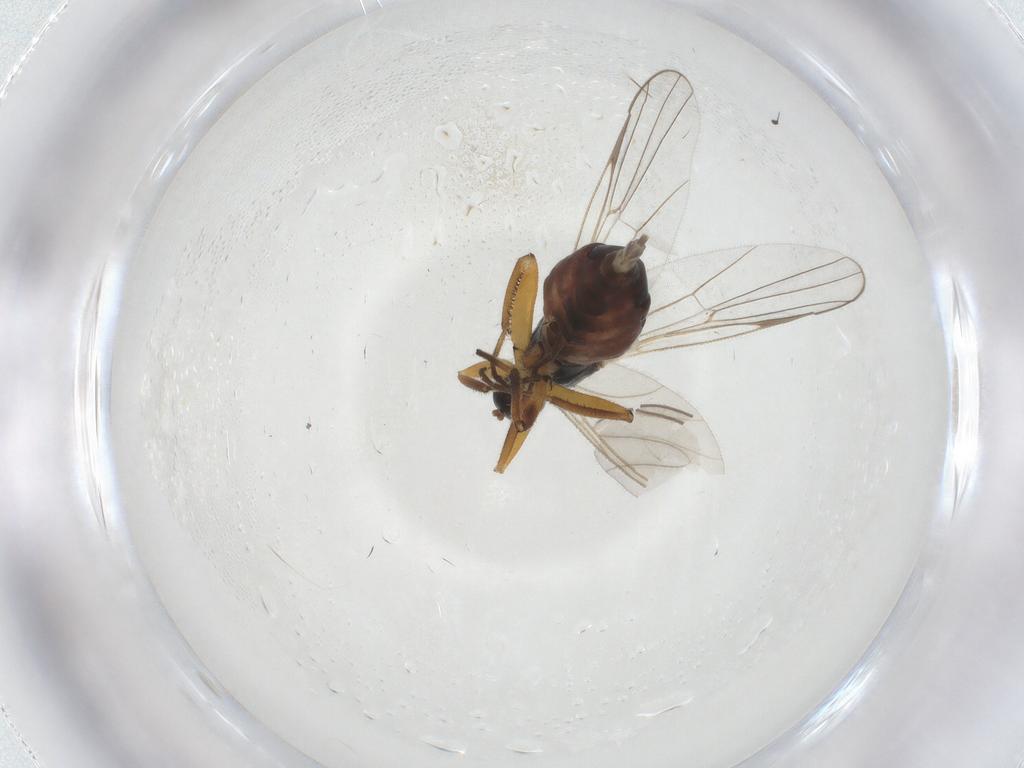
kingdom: Animalia
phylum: Arthropoda
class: Insecta
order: Diptera
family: Hybotidae
